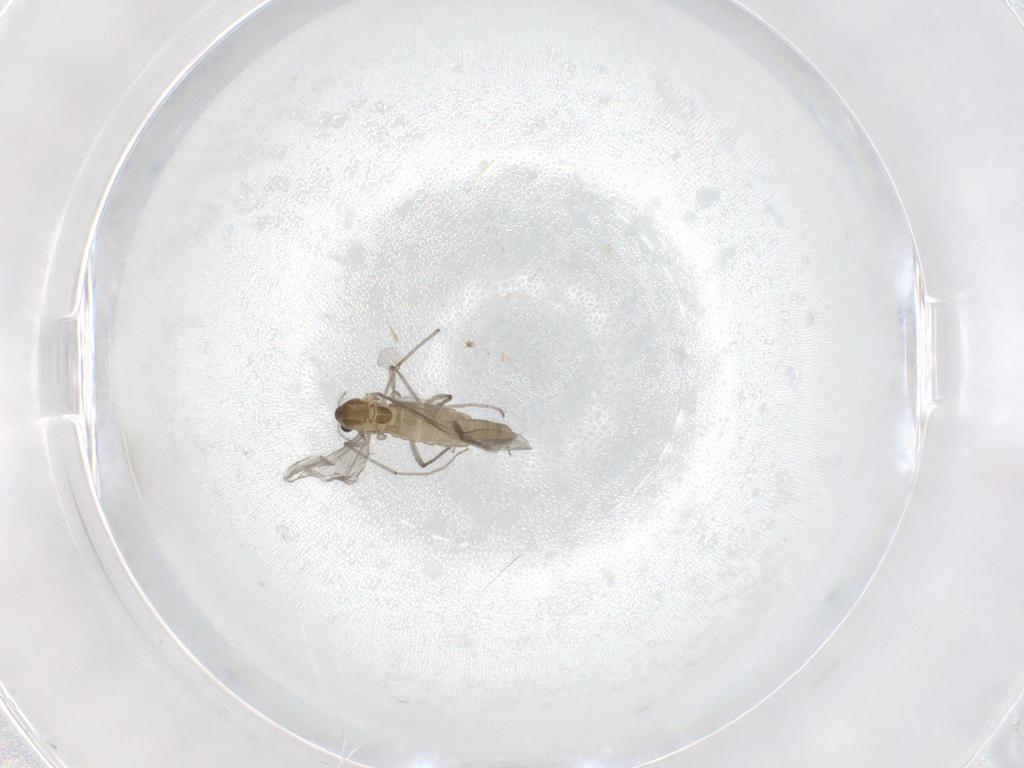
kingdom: Animalia
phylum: Arthropoda
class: Insecta
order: Diptera
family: Chironomidae
